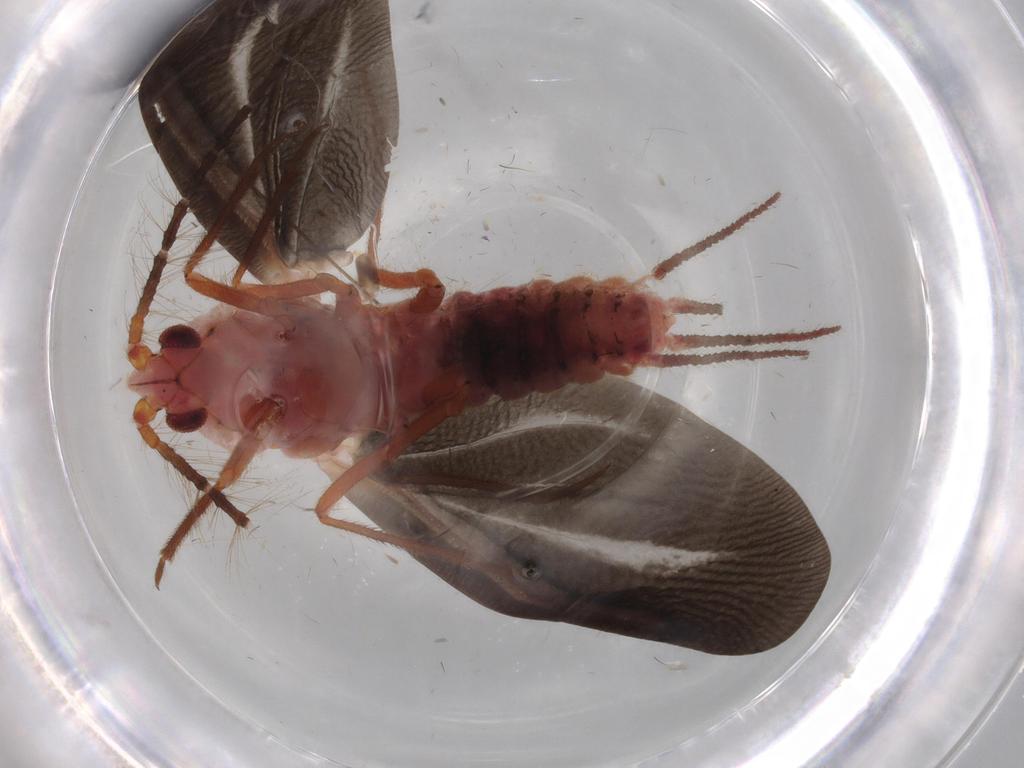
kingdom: Animalia
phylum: Arthropoda
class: Insecta
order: Hemiptera
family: Margarodidae
